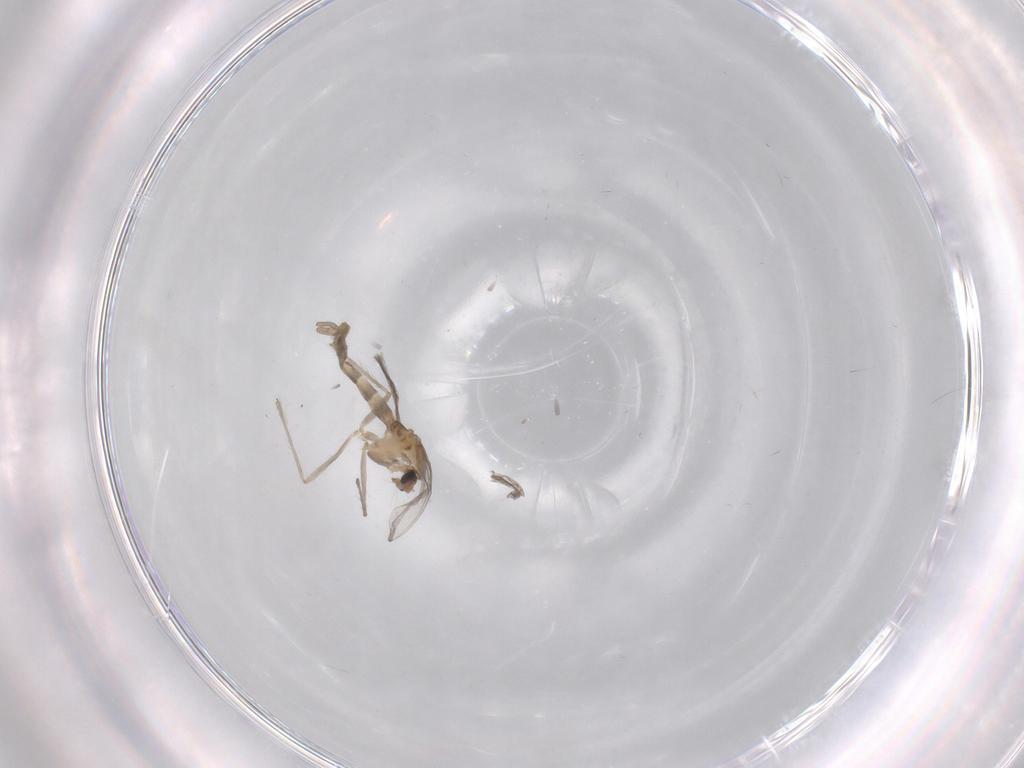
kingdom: Animalia
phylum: Arthropoda
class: Insecta
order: Diptera
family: Chironomidae
